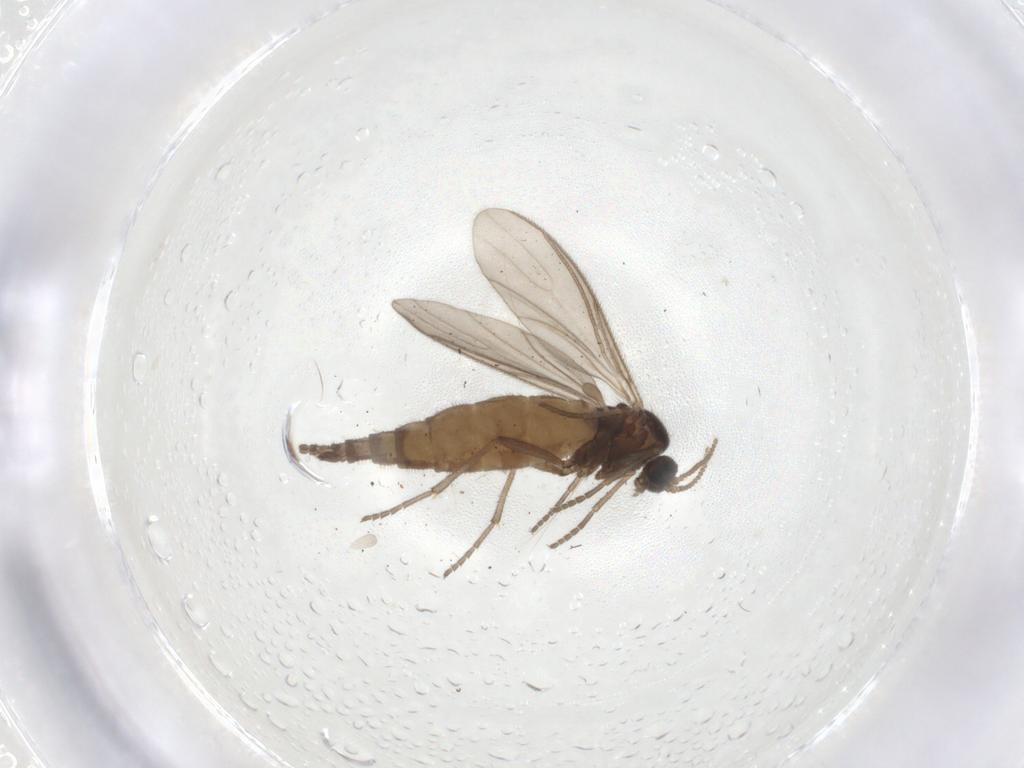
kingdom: Animalia
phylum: Arthropoda
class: Insecta
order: Diptera
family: Sciaridae
